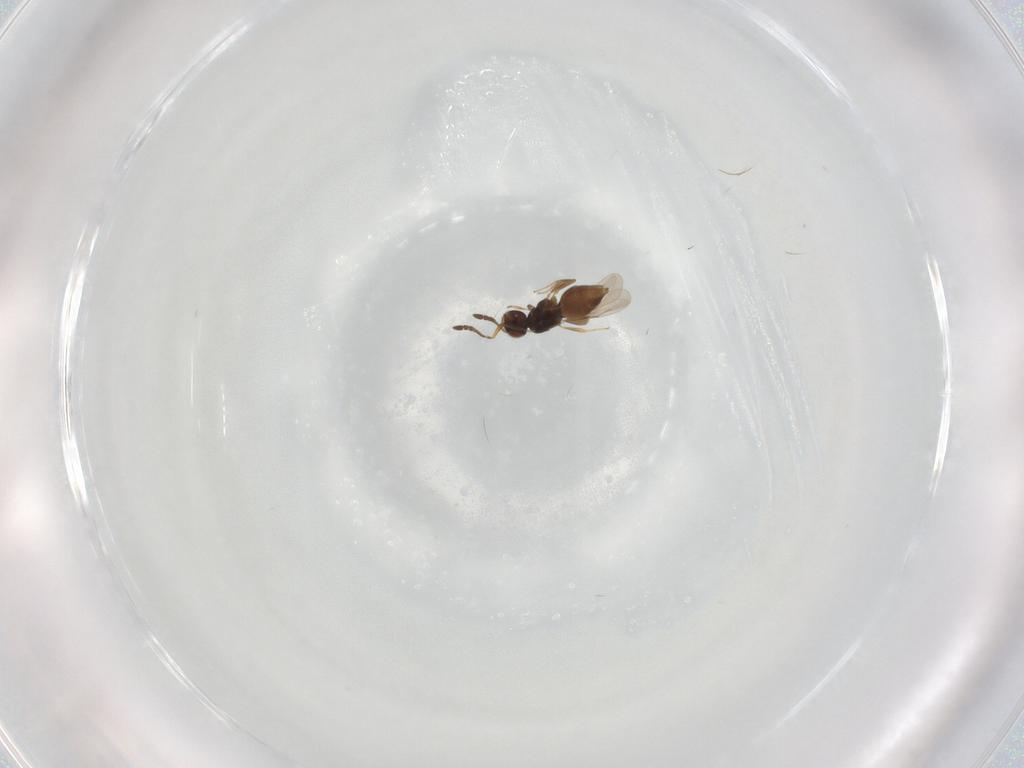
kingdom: Animalia
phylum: Arthropoda
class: Insecta
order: Hymenoptera
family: Ceraphronidae
